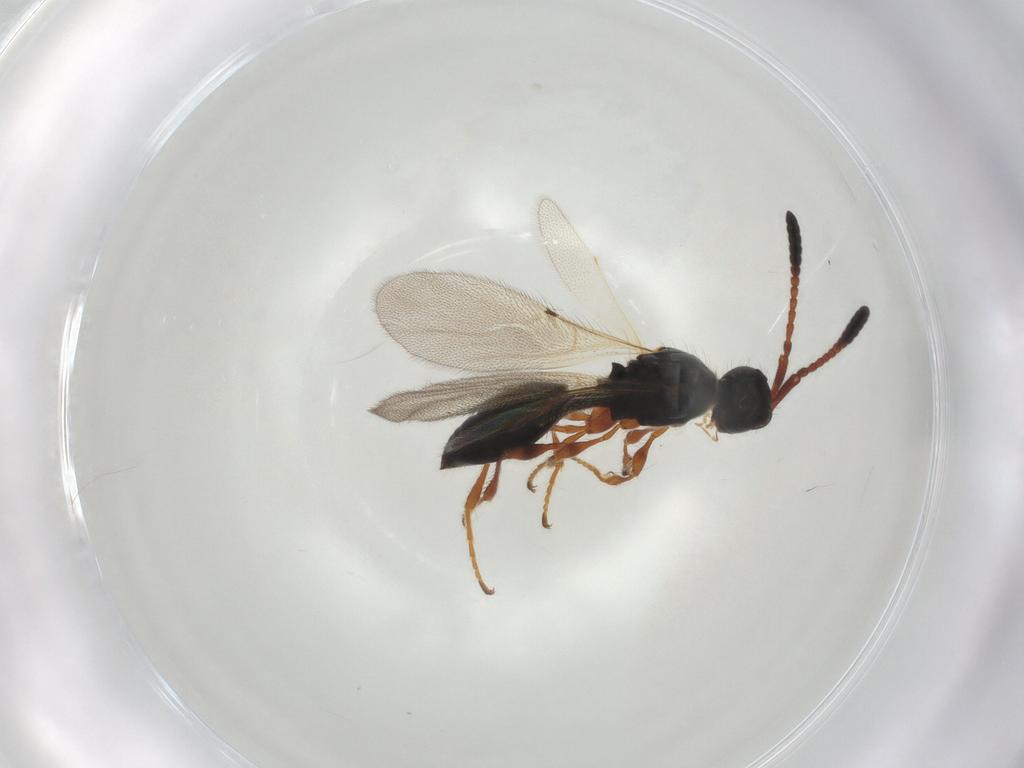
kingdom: Animalia
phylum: Arthropoda
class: Insecta
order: Hymenoptera
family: Diapriidae
